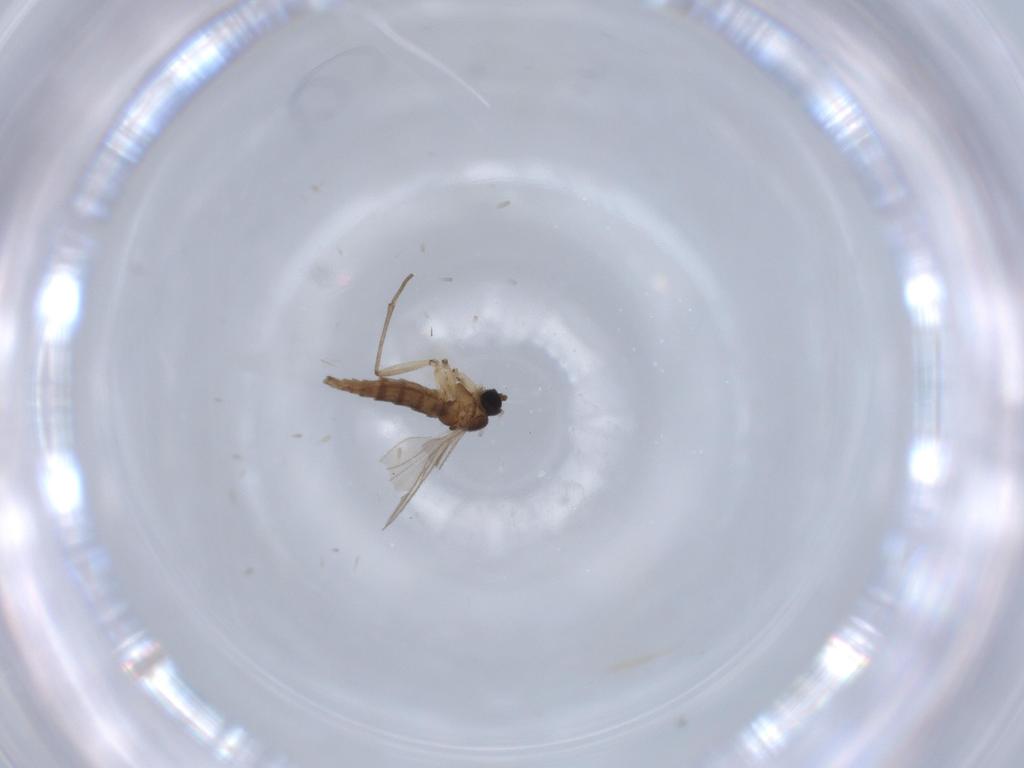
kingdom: Animalia
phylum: Arthropoda
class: Insecta
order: Diptera
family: Sciaridae
